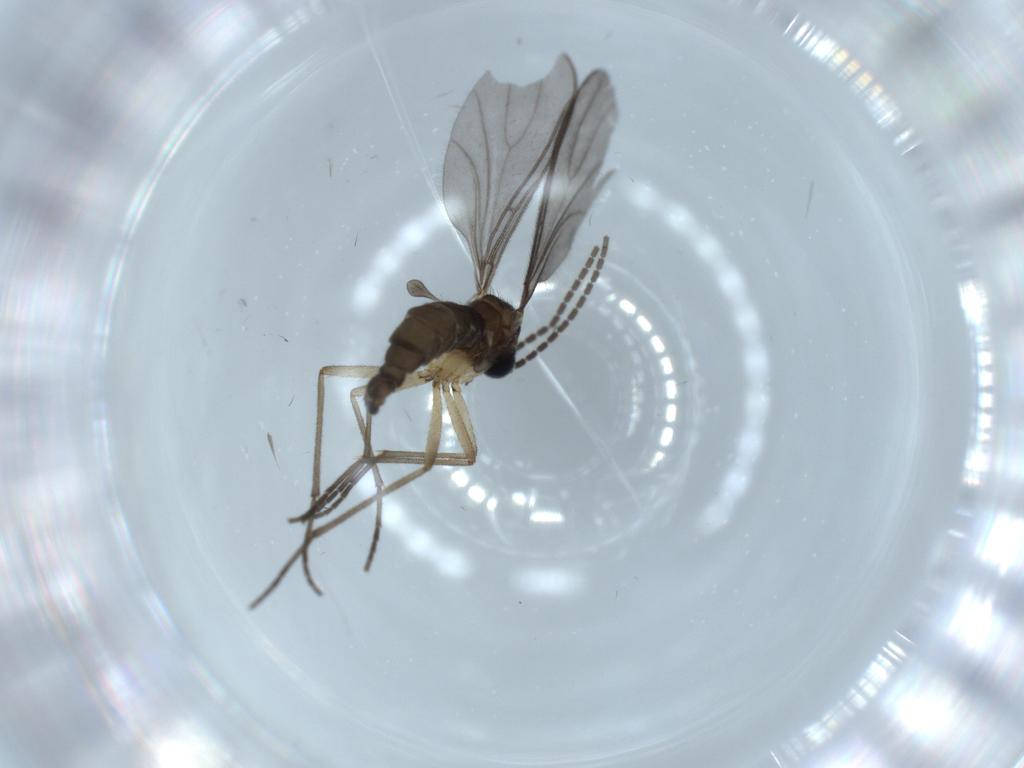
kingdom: Animalia
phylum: Arthropoda
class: Insecta
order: Diptera
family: Sciaridae
